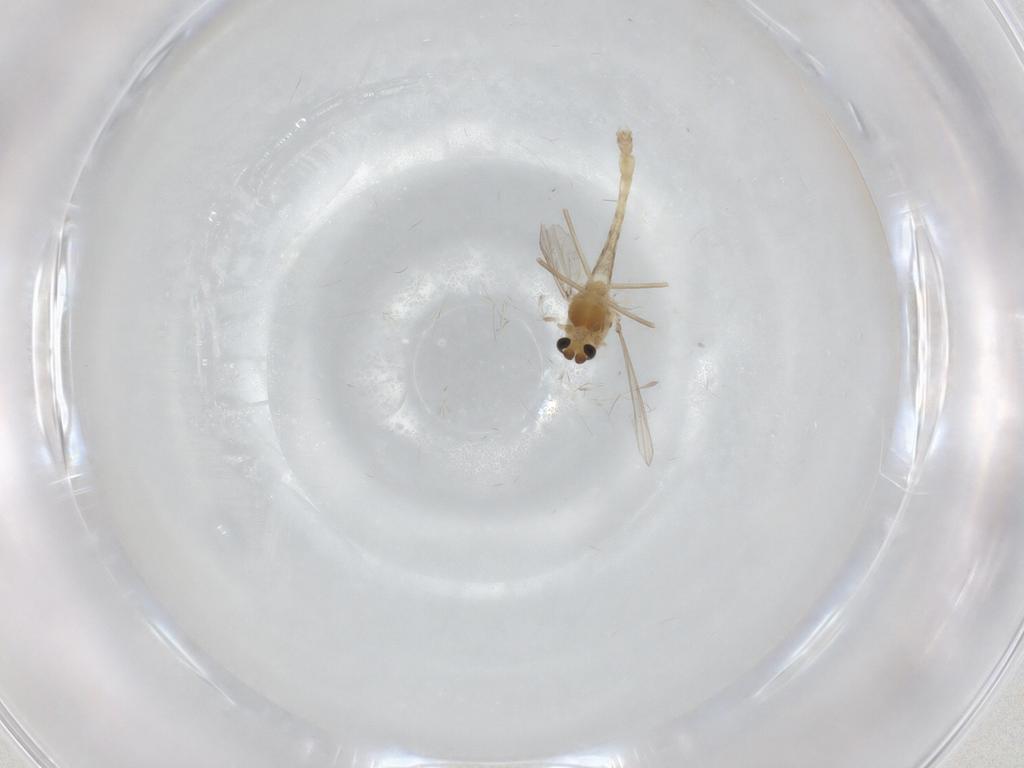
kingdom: Animalia
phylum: Arthropoda
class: Insecta
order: Diptera
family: Chironomidae
